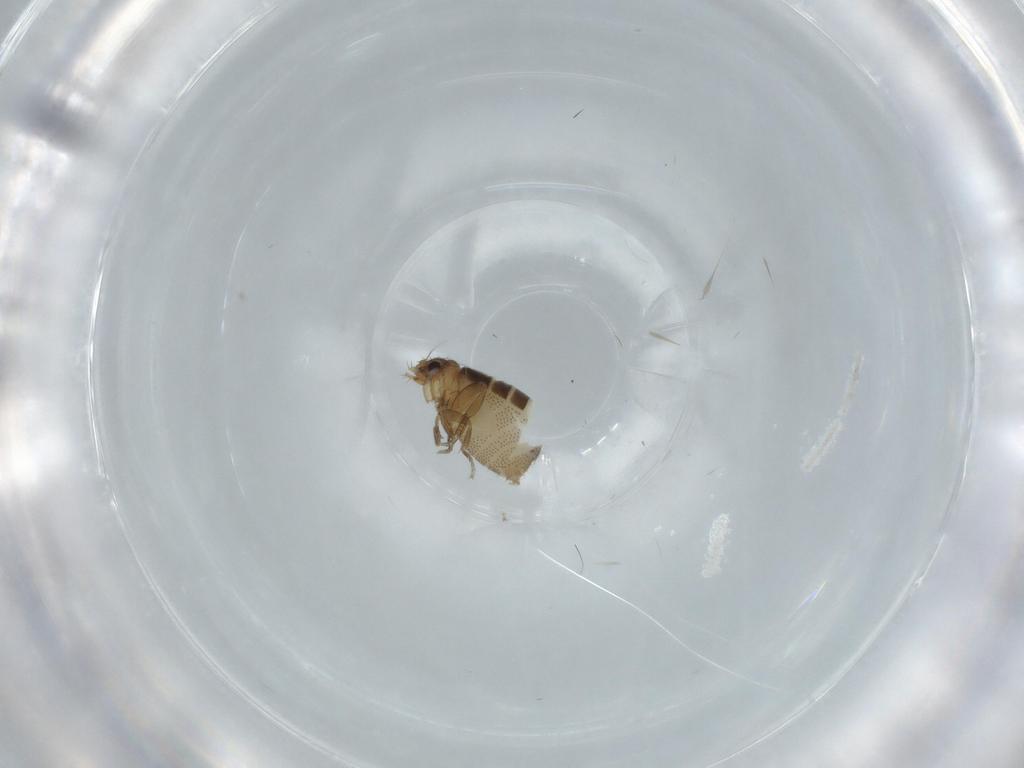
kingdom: Animalia
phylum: Arthropoda
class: Insecta
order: Diptera
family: Phoridae
